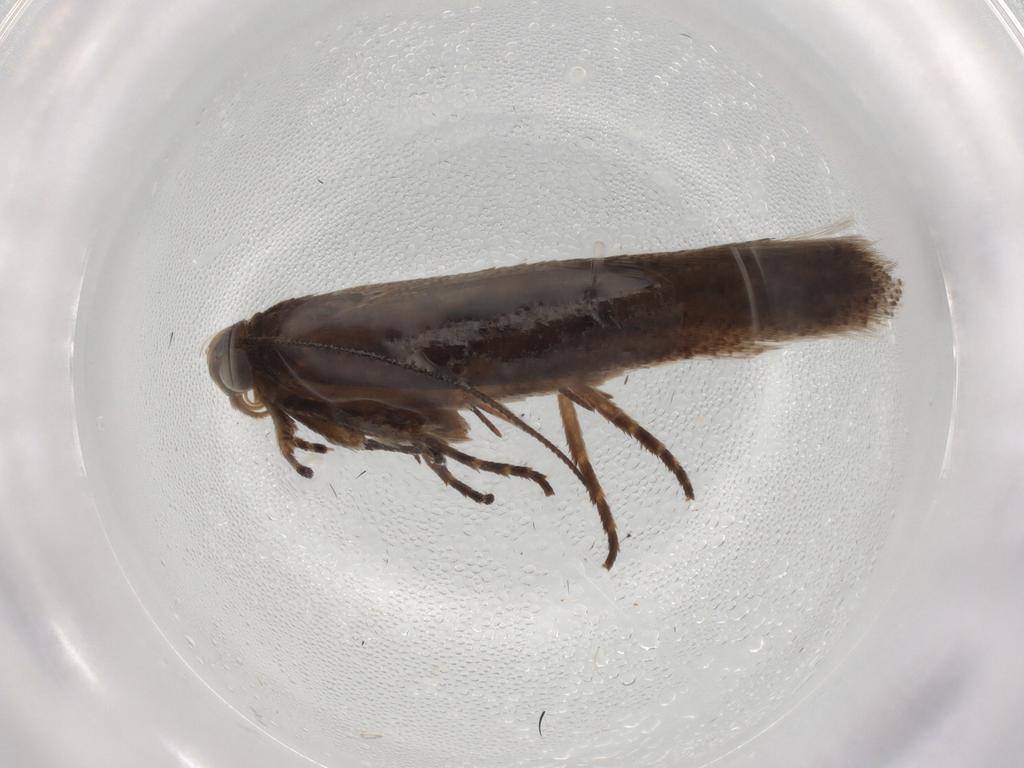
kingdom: Animalia
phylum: Arthropoda
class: Insecta
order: Lepidoptera
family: Gelechiidae
